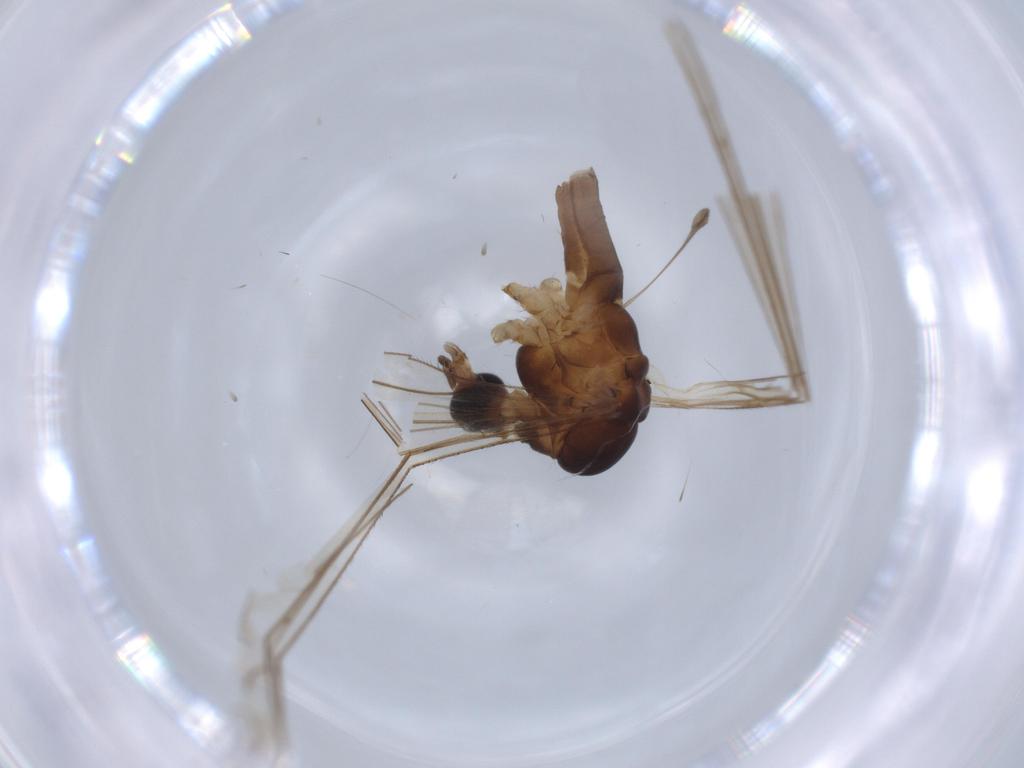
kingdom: Animalia
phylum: Arthropoda
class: Insecta
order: Diptera
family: Limoniidae
